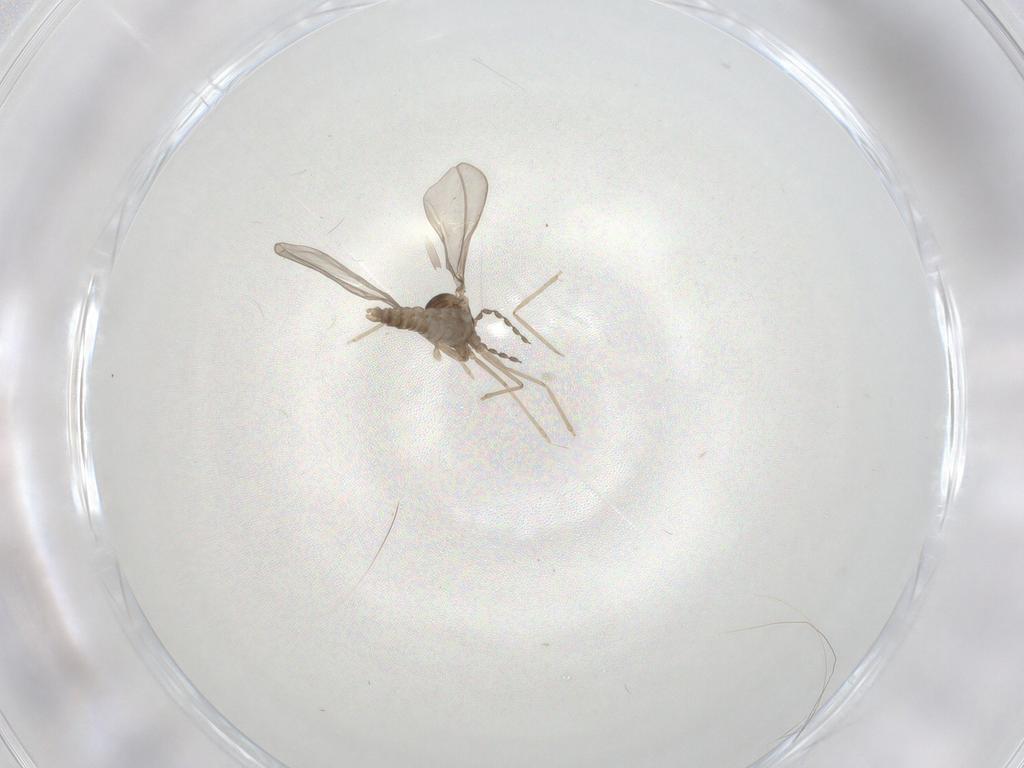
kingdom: Animalia
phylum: Arthropoda
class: Insecta
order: Diptera
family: Cecidomyiidae
